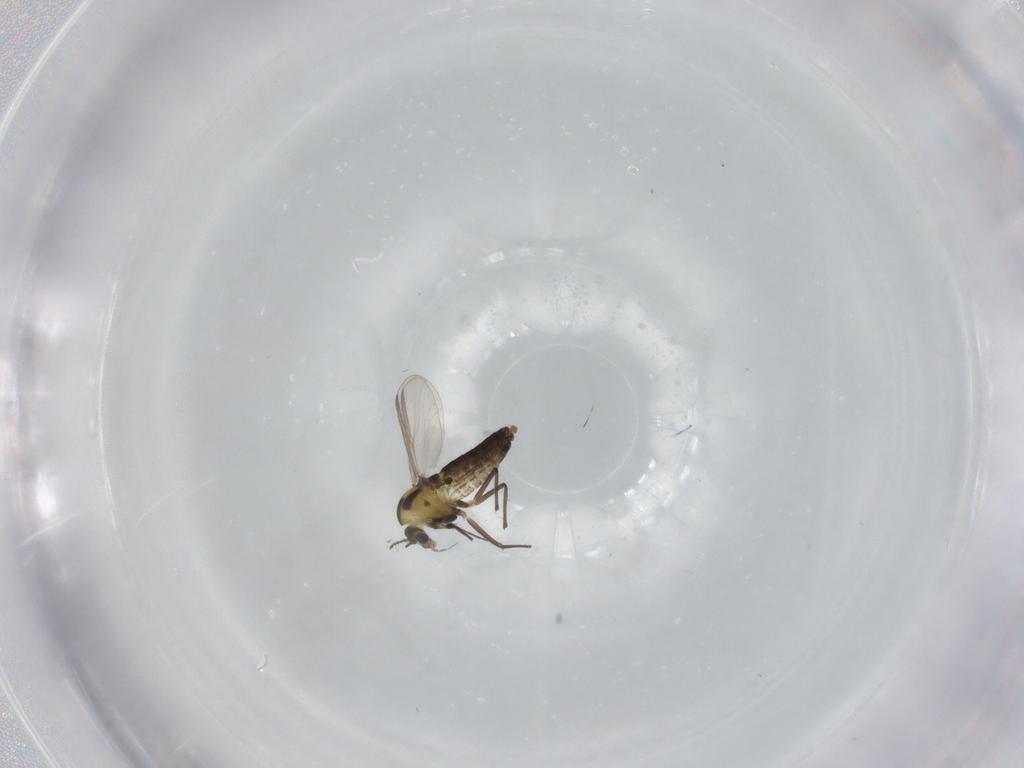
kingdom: Animalia
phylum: Arthropoda
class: Insecta
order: Diptera
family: Chironomidae
